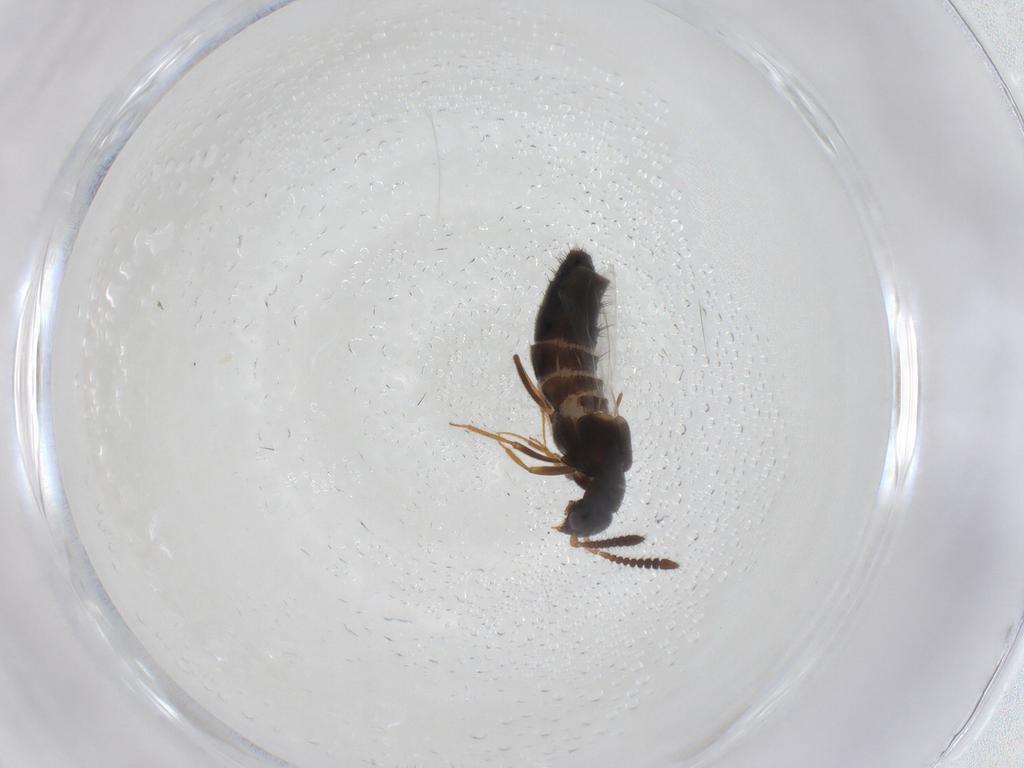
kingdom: Animalia
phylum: Arthropoda
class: Insecta
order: Coleoptera
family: Staphylinidae
